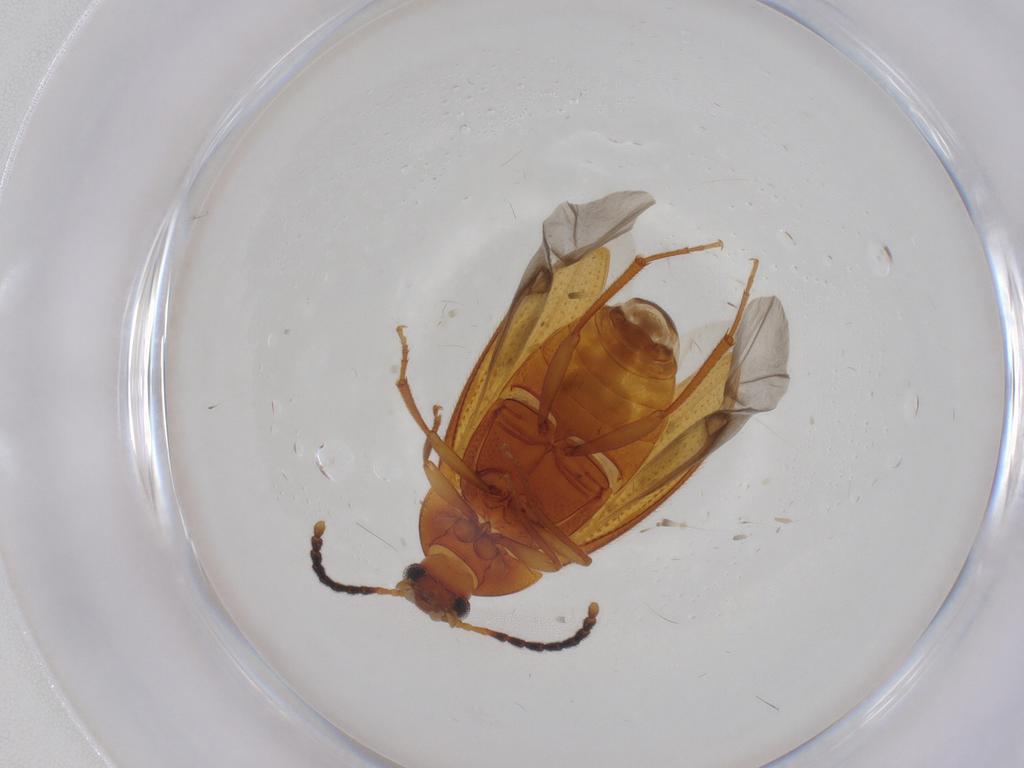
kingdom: Animalia
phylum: Arthropoda
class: Insecta
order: Coleoptera
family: Tenebrionidae
